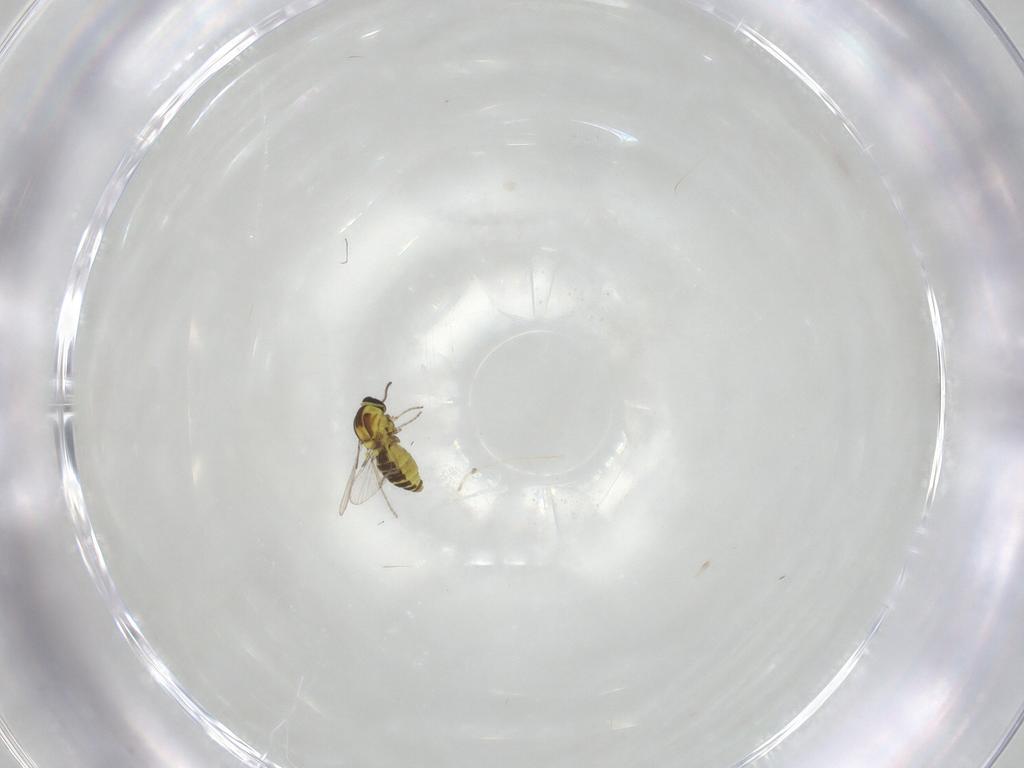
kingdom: Animalia
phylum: Arthropoda
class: Insecta
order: Diptera
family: Ceratopogonidae
